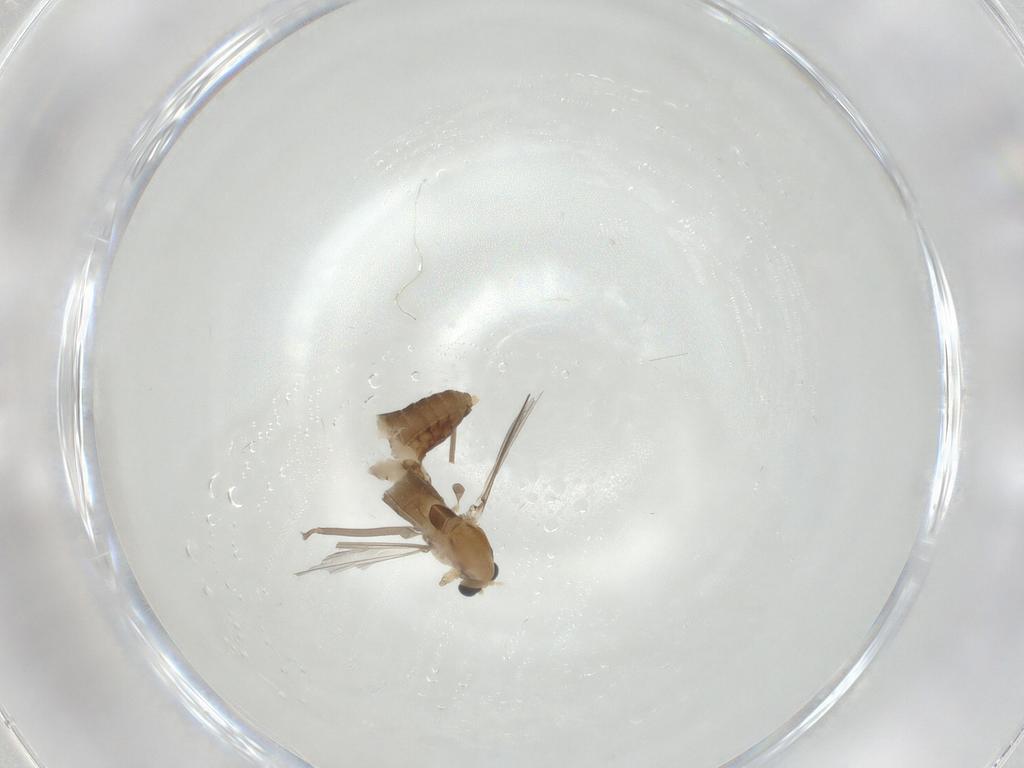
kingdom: Animalia
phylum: Arthropoda
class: Insecta
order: Diptera
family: Chironomidae
